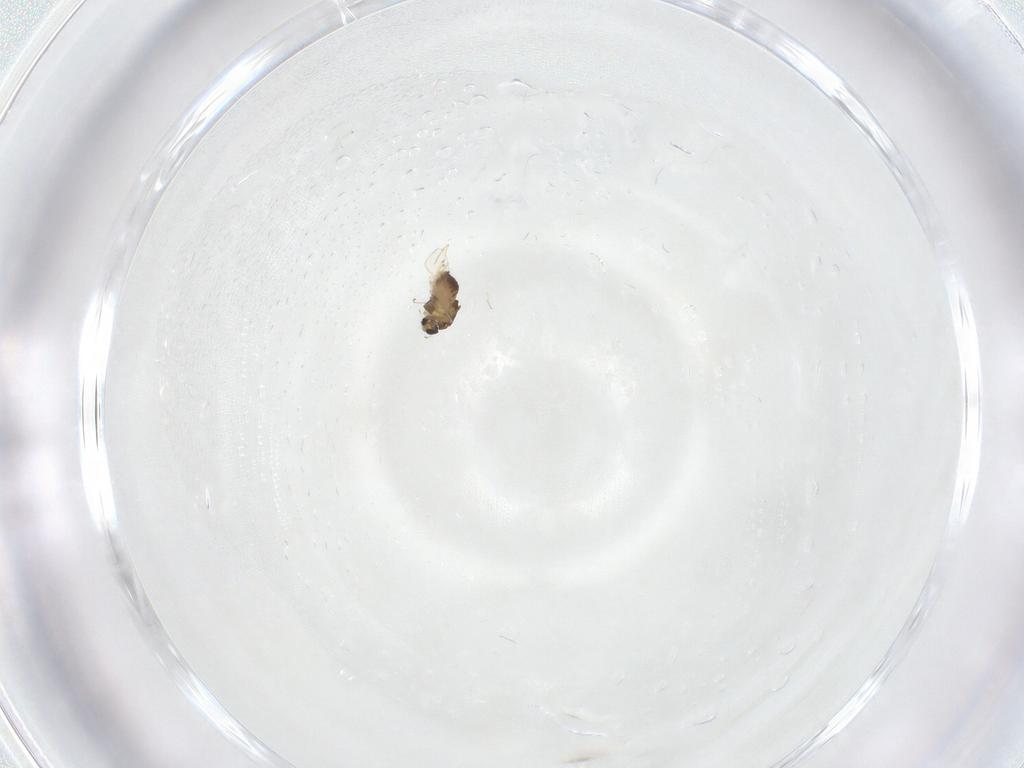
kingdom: Animalia
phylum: Arthropoda
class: Insecta
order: Diptera
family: Chironomidae
